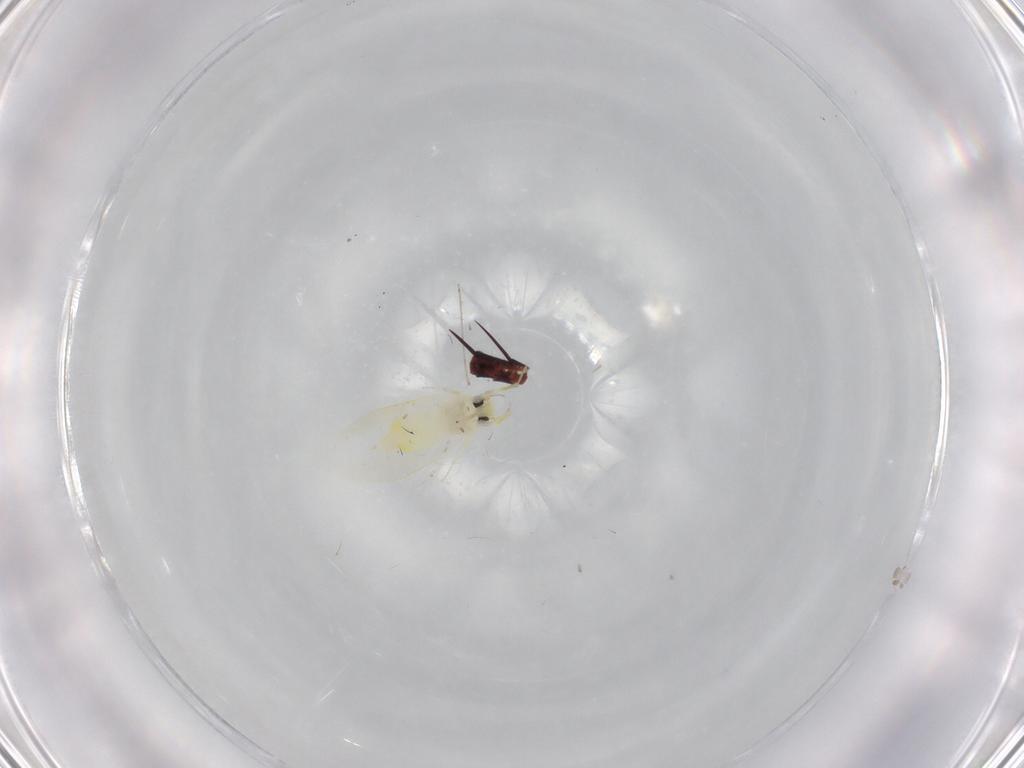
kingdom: Animalia
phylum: Arthropoda
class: Insecta
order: Hemiptera
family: Aleyrodidae
